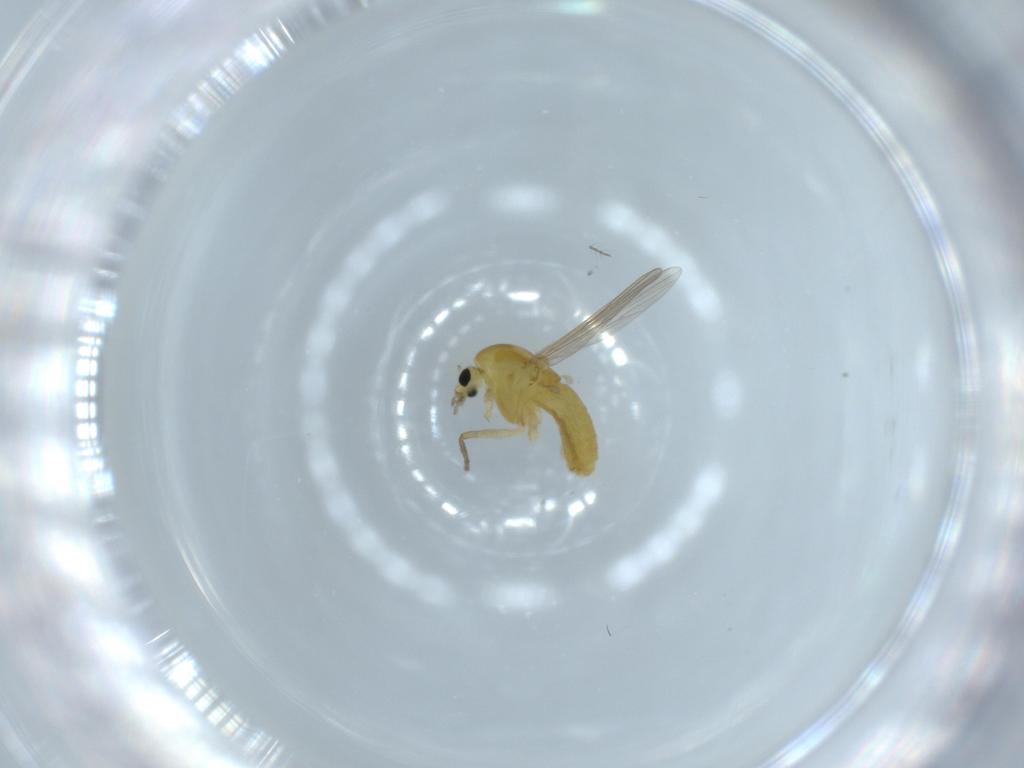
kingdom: Animalia
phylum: Arthropoda
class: Insecta
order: Diptera
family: Chironomidae
